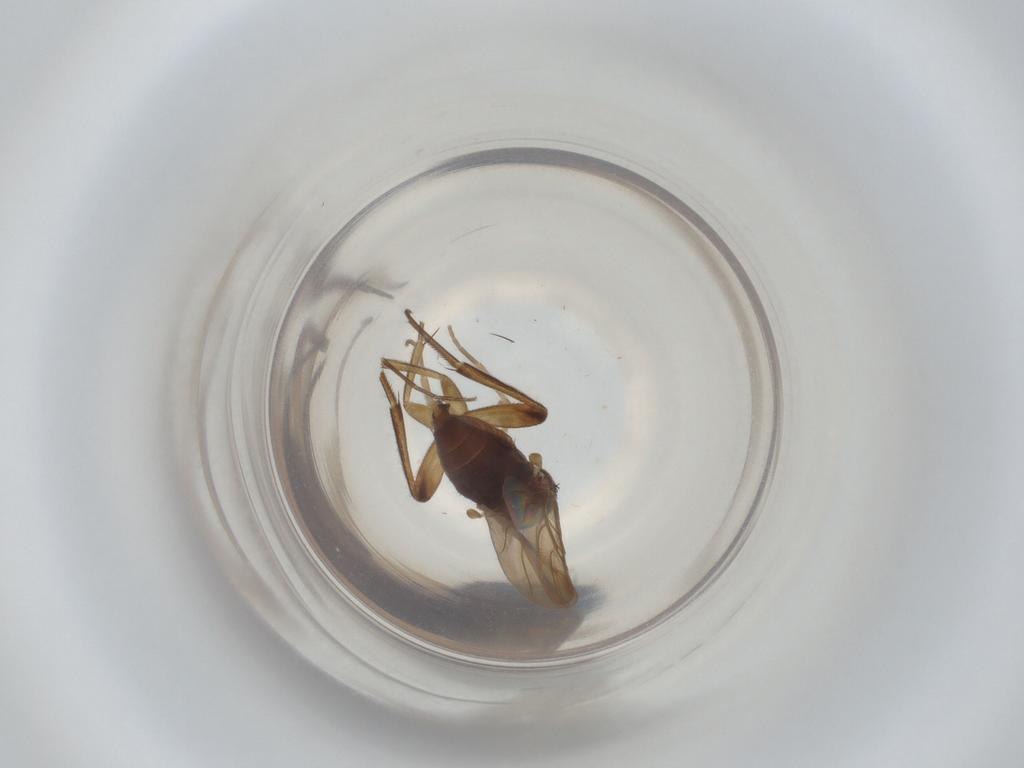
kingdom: Animalia
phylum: Arthropoda
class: Insecta
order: Diptera
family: Phoridae
